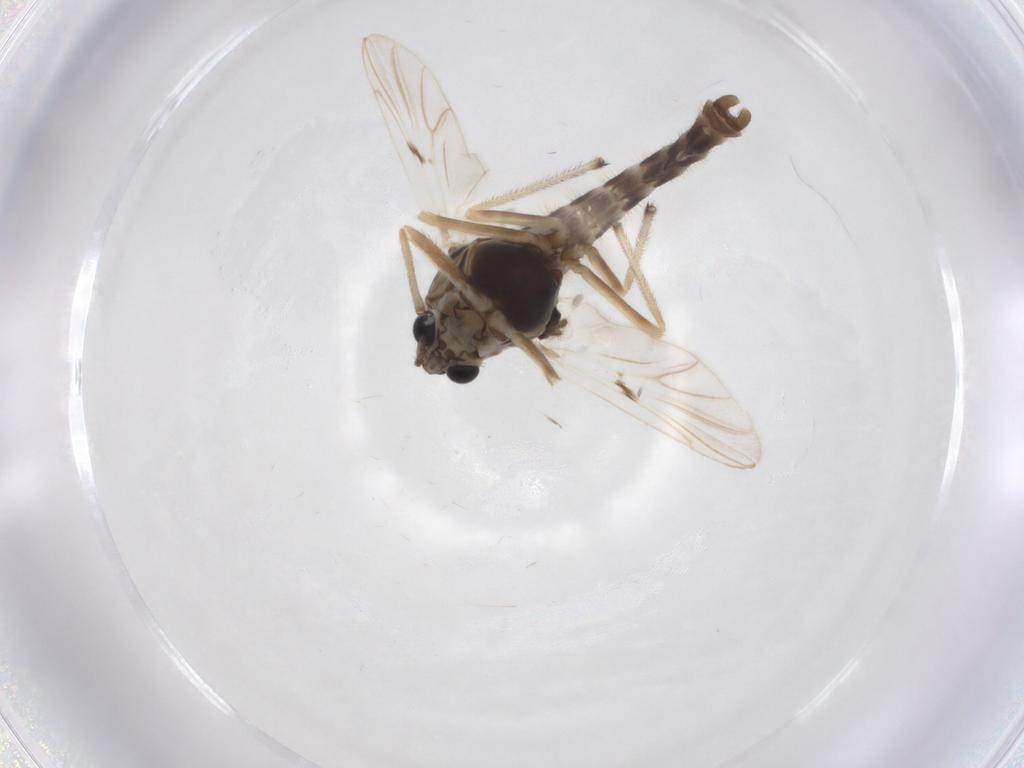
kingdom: Animalia
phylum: Arthropoda
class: Insecta
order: Diptera
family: Chironomidae
